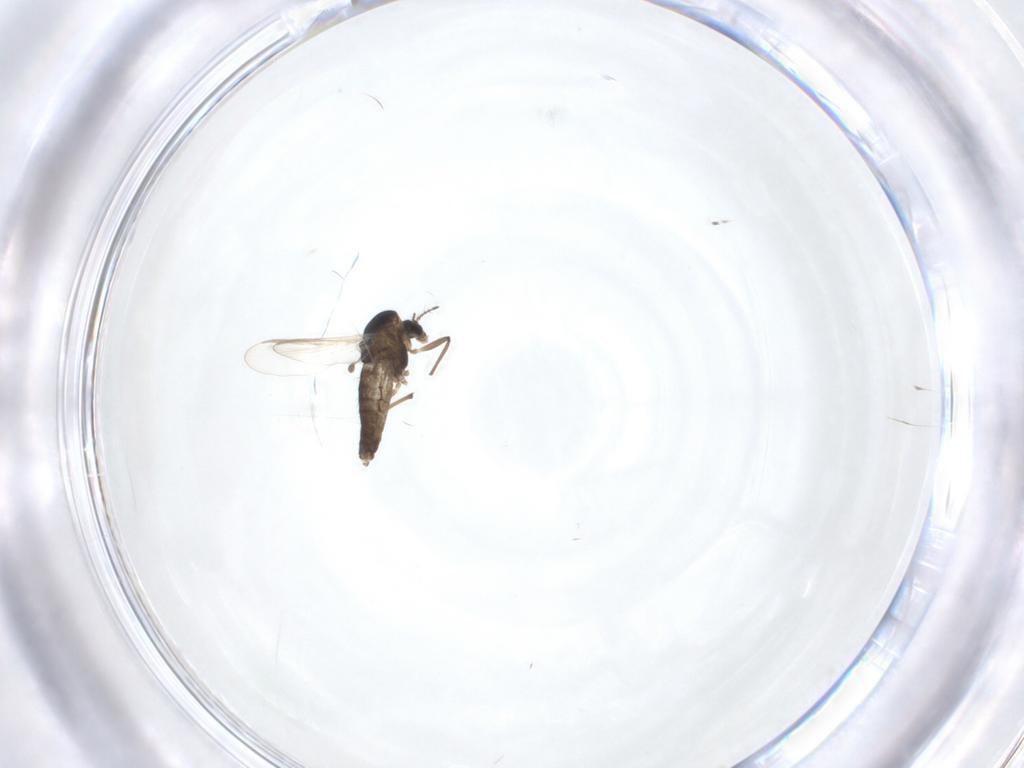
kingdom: Animalia
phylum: Arthropoda
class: Insecta
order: Diptera
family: Chironomidae
